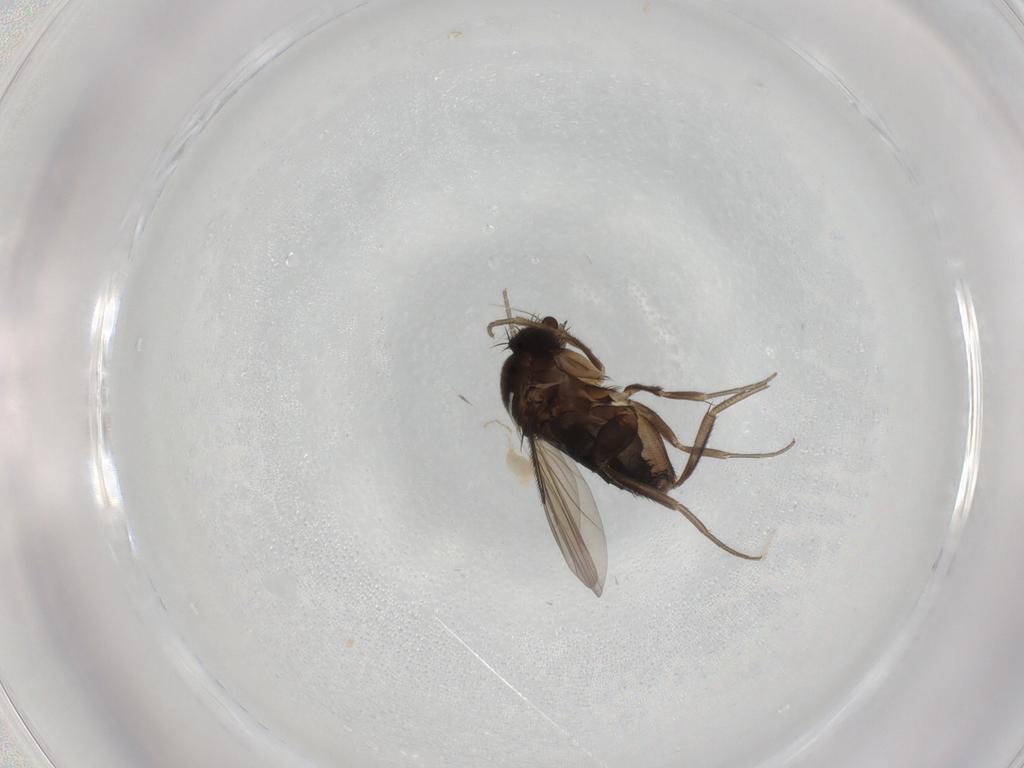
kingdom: Animalia
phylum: Arthropoda
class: Insecta
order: Diptera
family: Phoridae
